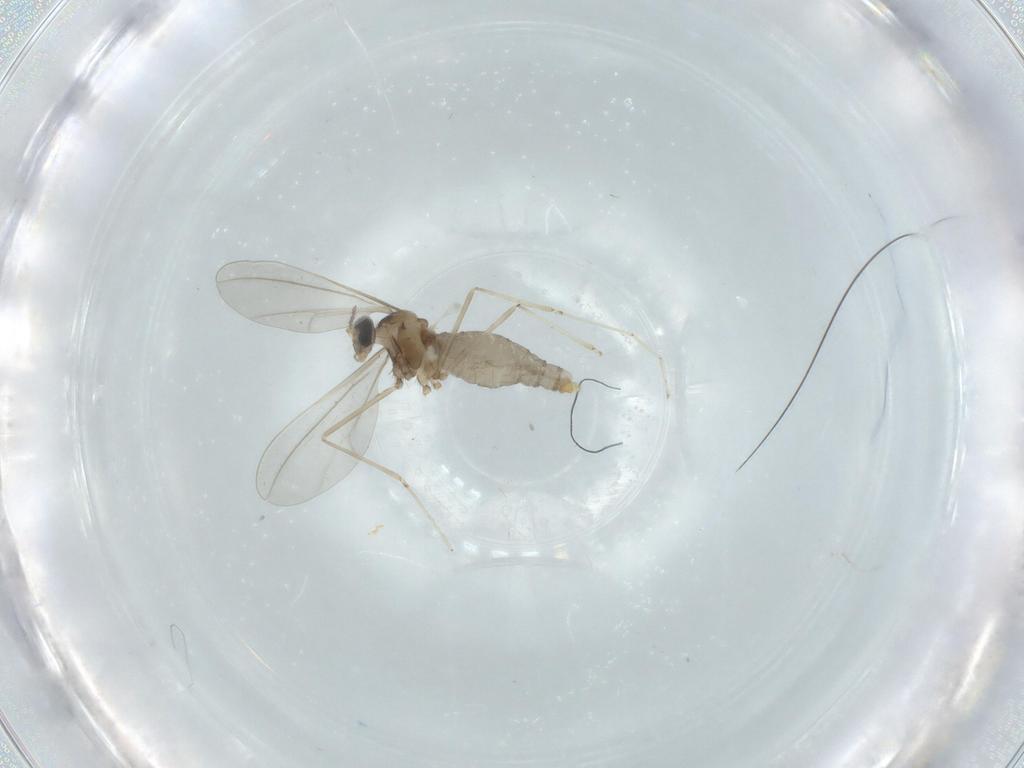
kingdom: Animalia
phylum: Arthropoda
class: Insecta
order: Diptera
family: Cecidomyiidae
